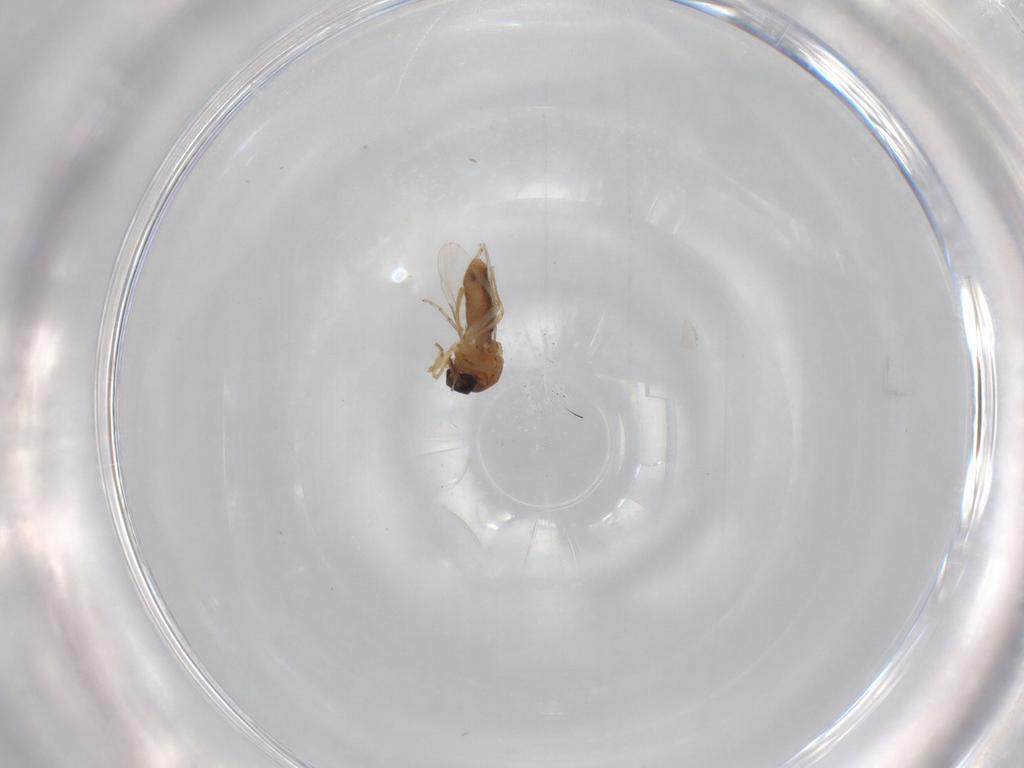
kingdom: Animalia
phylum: Arthropoda
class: Insecta
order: Diptera
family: Ceratopogonidae
